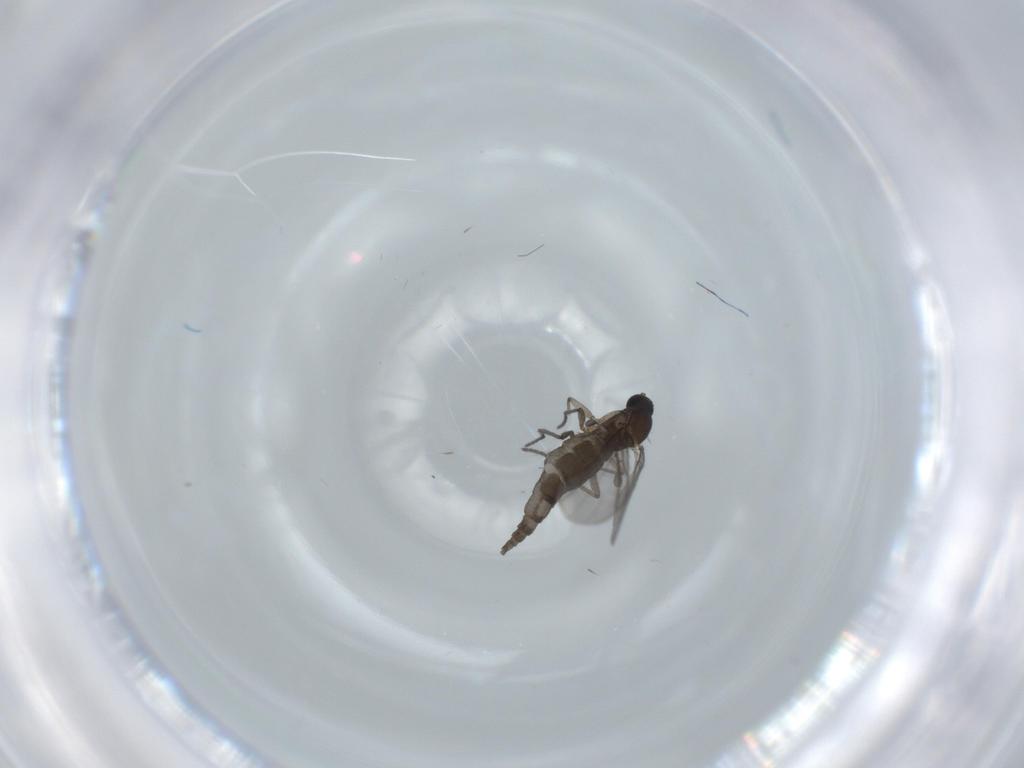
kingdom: Animalia
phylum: Arthropoda
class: Insecta
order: Diptera
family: Sciaridae
